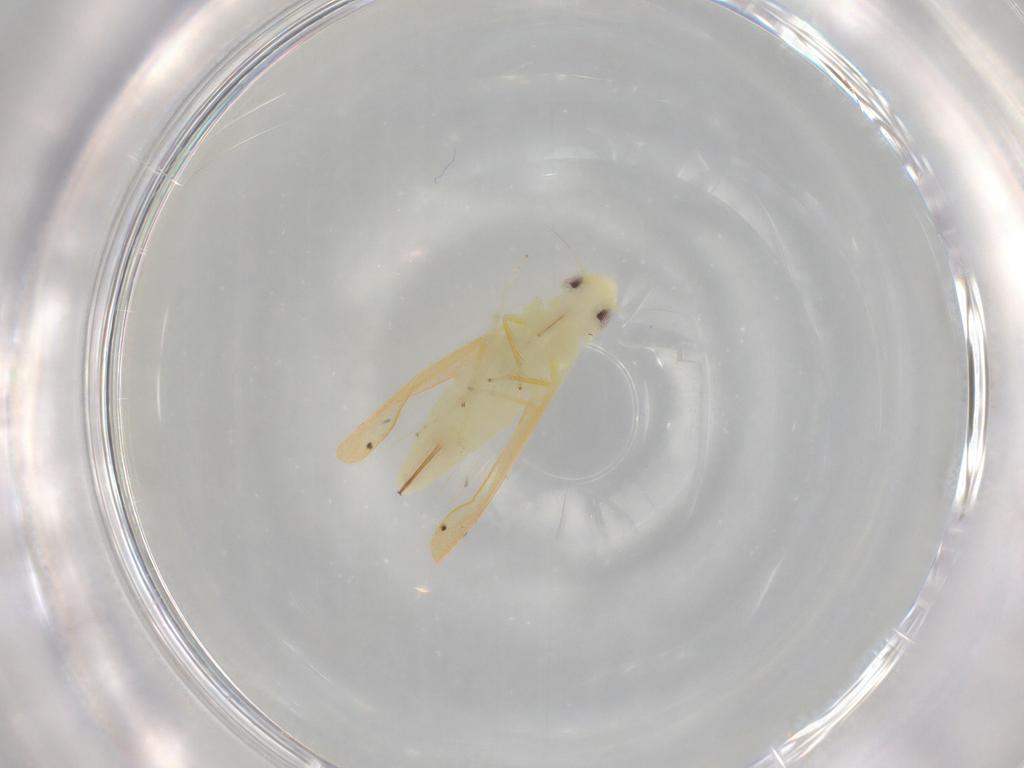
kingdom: Animalia
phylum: Arthropoda
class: Insecta
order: Hemiptera
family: Cicadellidae
